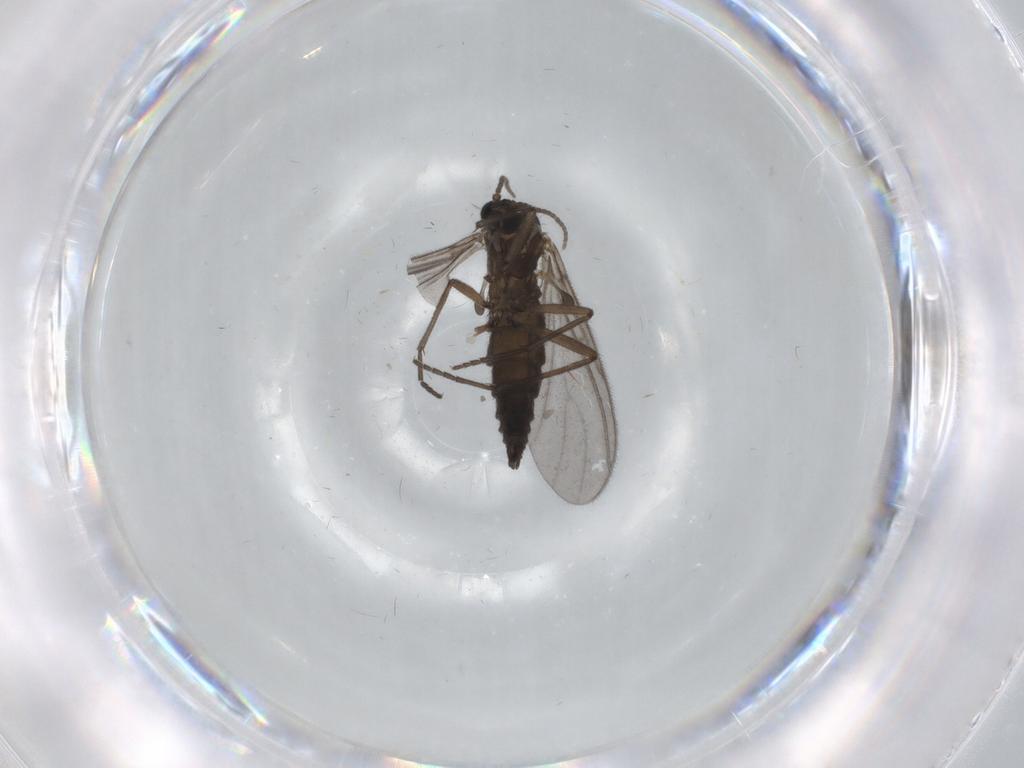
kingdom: Animalia
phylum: Arthropoda
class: Insecta
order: Diptera
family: Sciaridae
